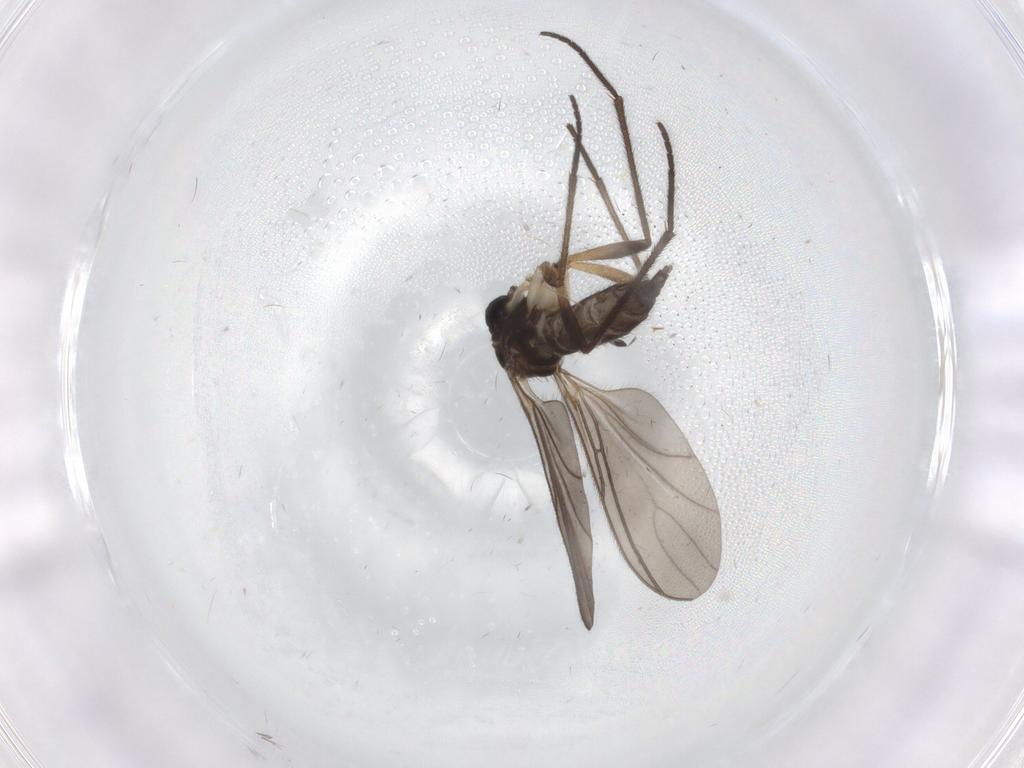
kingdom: Animalia
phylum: Arthropoda
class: Insecta
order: Diptera
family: Sciaridae
